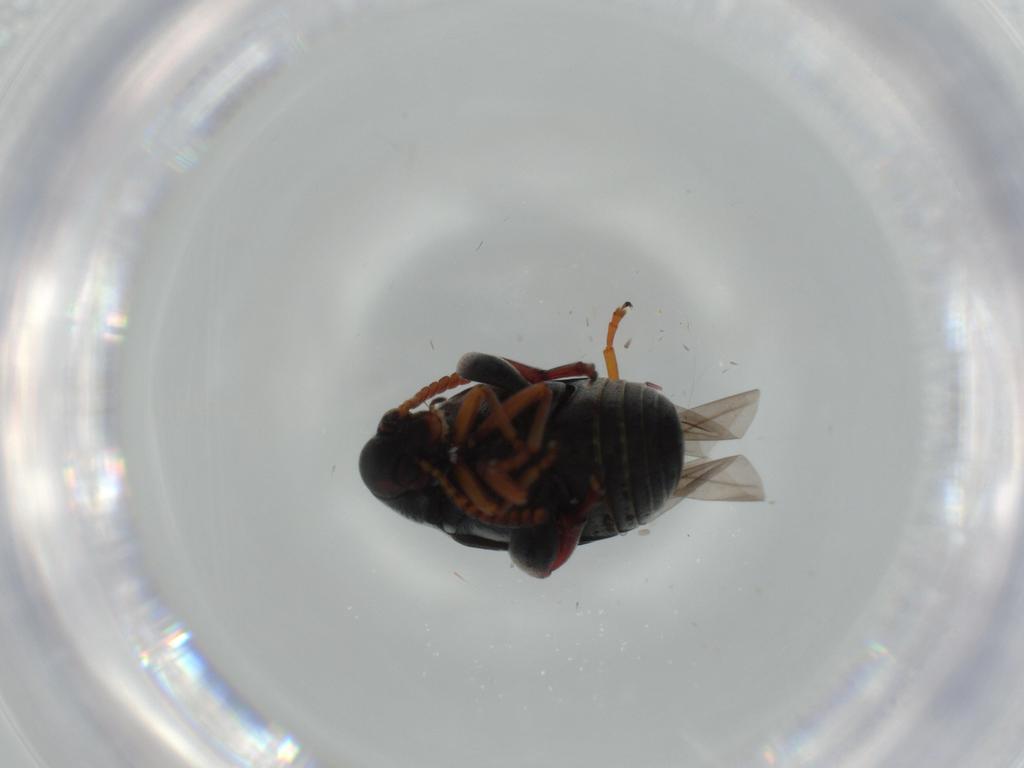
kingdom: Animalia
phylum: Arthropoda
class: Insecta
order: Coleoptera
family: Chrysomelidae
